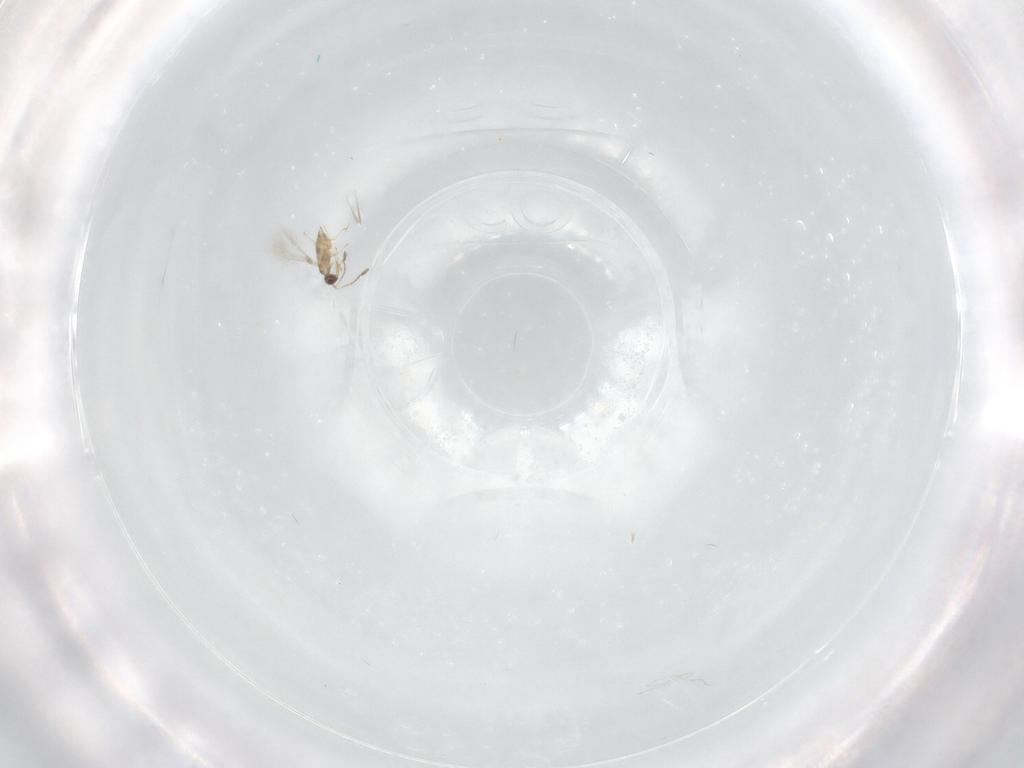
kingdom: Animalia
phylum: Arthropoda
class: Insecta
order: Hymenoptera
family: Mymaridae
